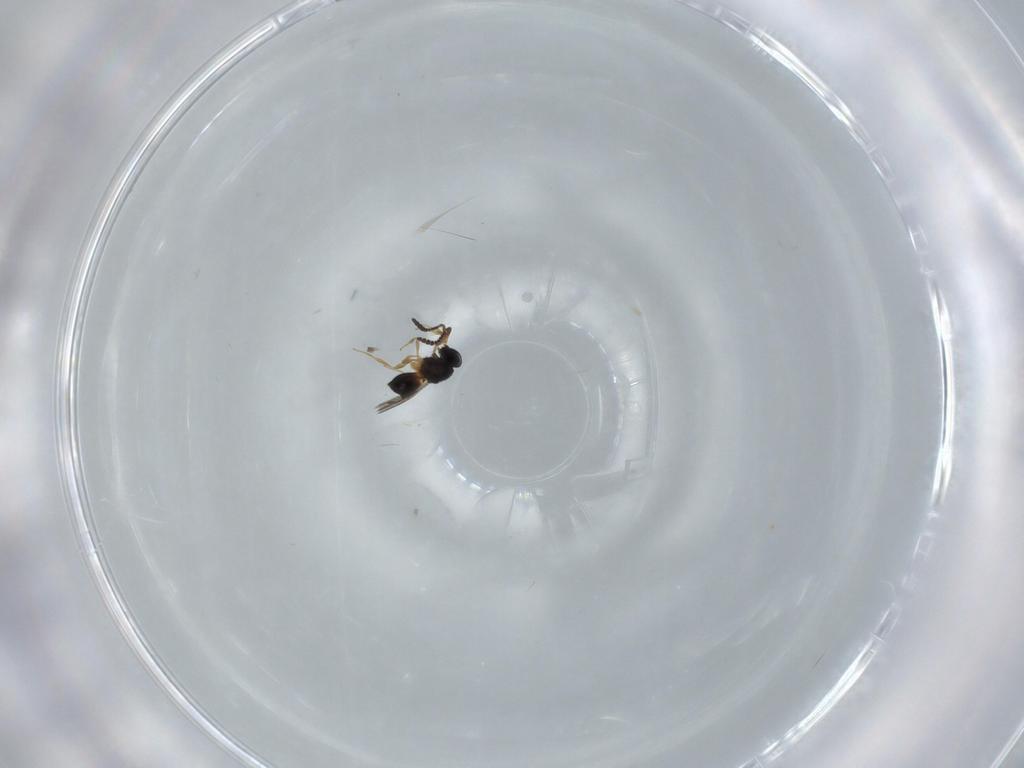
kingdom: Animalia
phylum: Arthropoda
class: Insecta
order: Hymenoptera
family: Scelionidae
